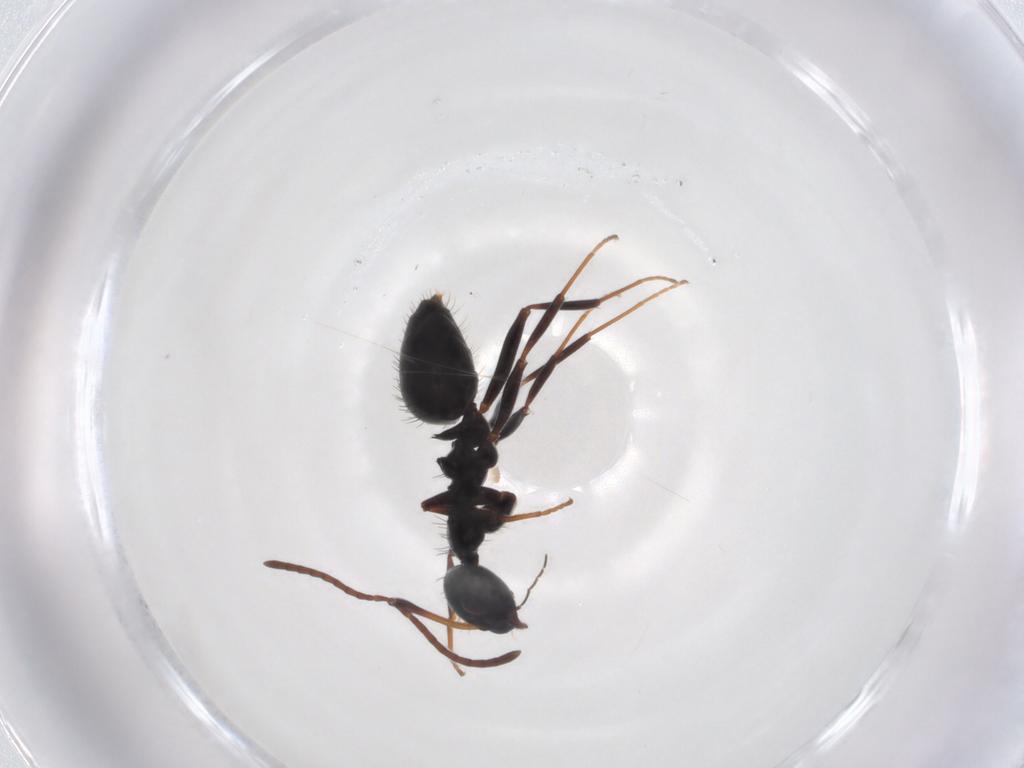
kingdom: Animalia
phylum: Arthropoda
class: Insecta
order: Hymenoptera
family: Formicidae
